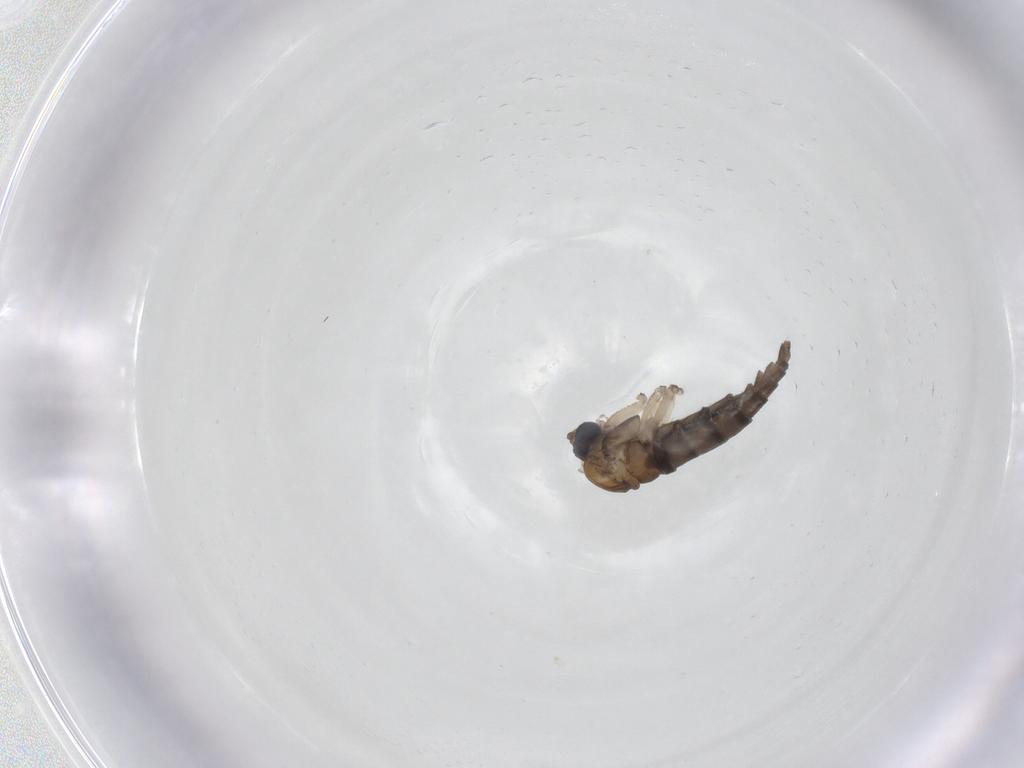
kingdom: Animalia
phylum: Arthropoda
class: Insecta
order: Diptera
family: Sciaridae
